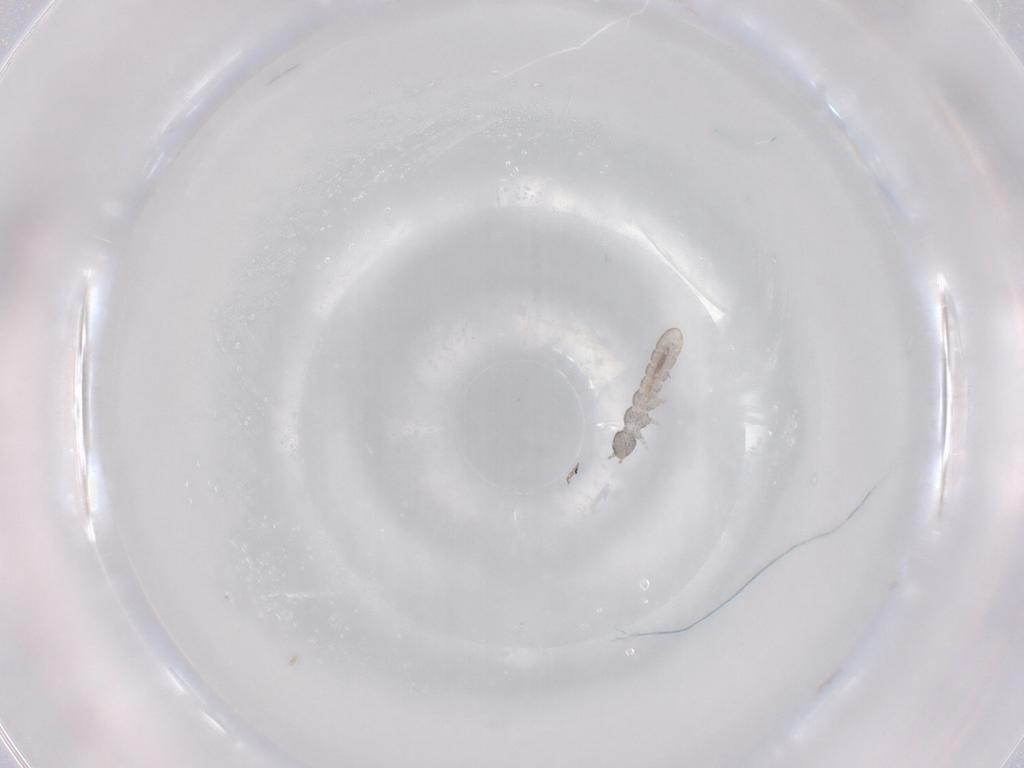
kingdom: Animalia
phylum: Arthropoda
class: Collembola
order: Entomobryomorpha
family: Isotomidae
